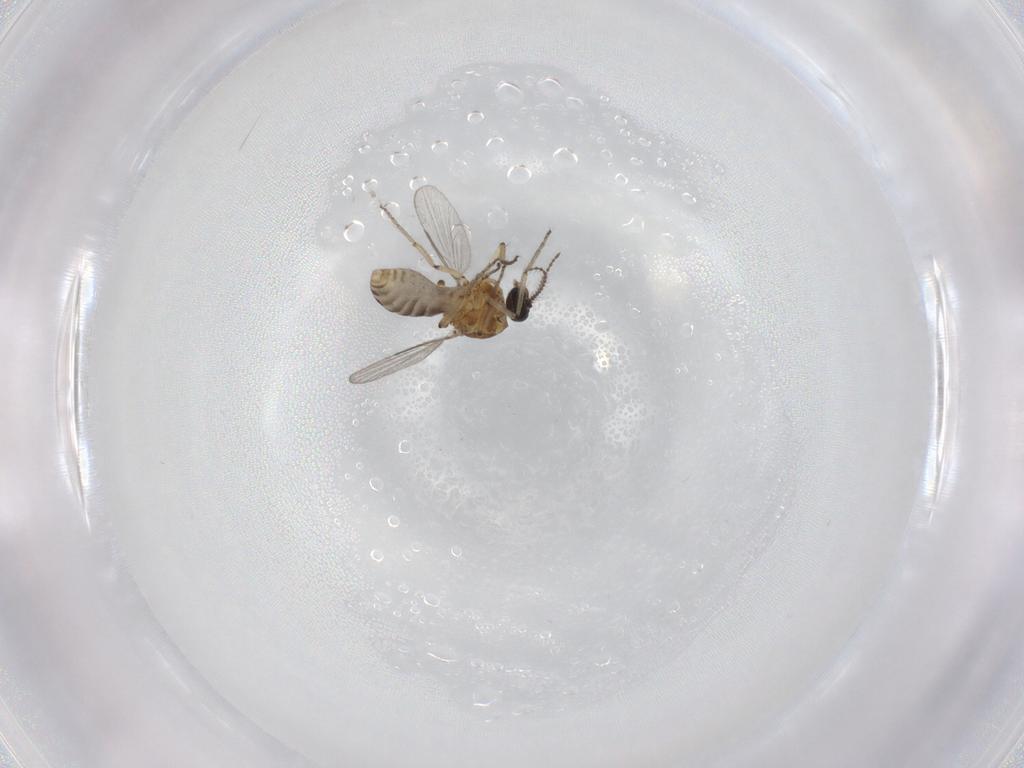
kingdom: Animalia
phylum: Arthropoda
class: Insecta
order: Diptera
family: Ceratopogonidae
